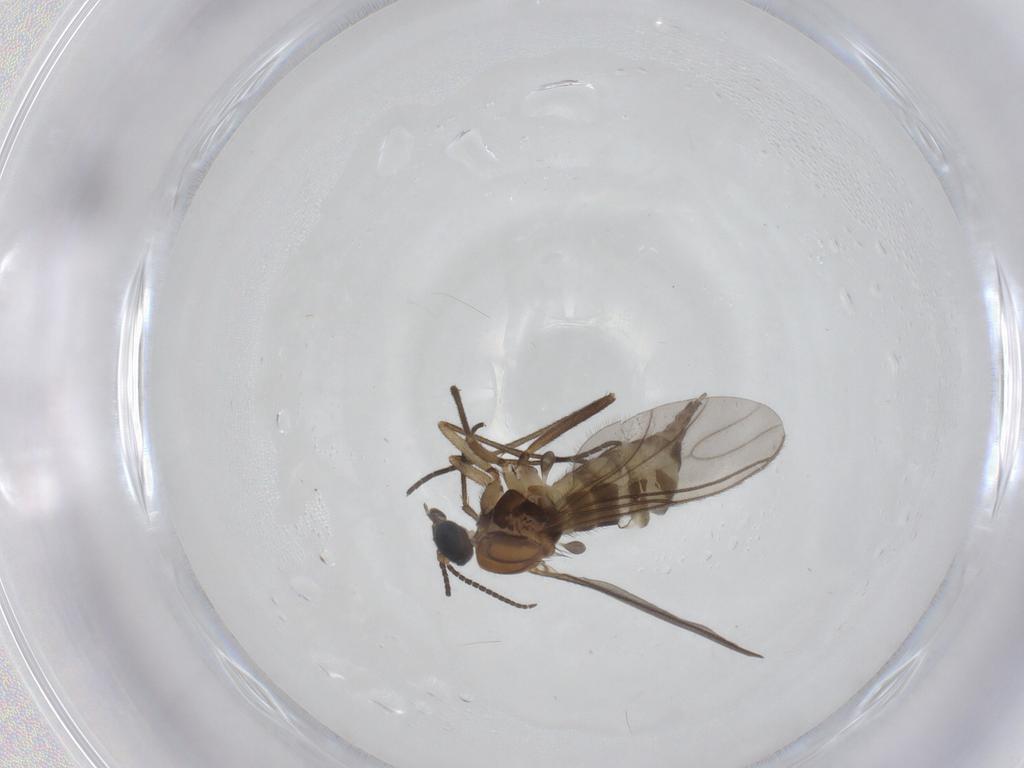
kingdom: Animalia
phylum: Arthropoda
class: Insecta
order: Diptera
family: Sciaridae
